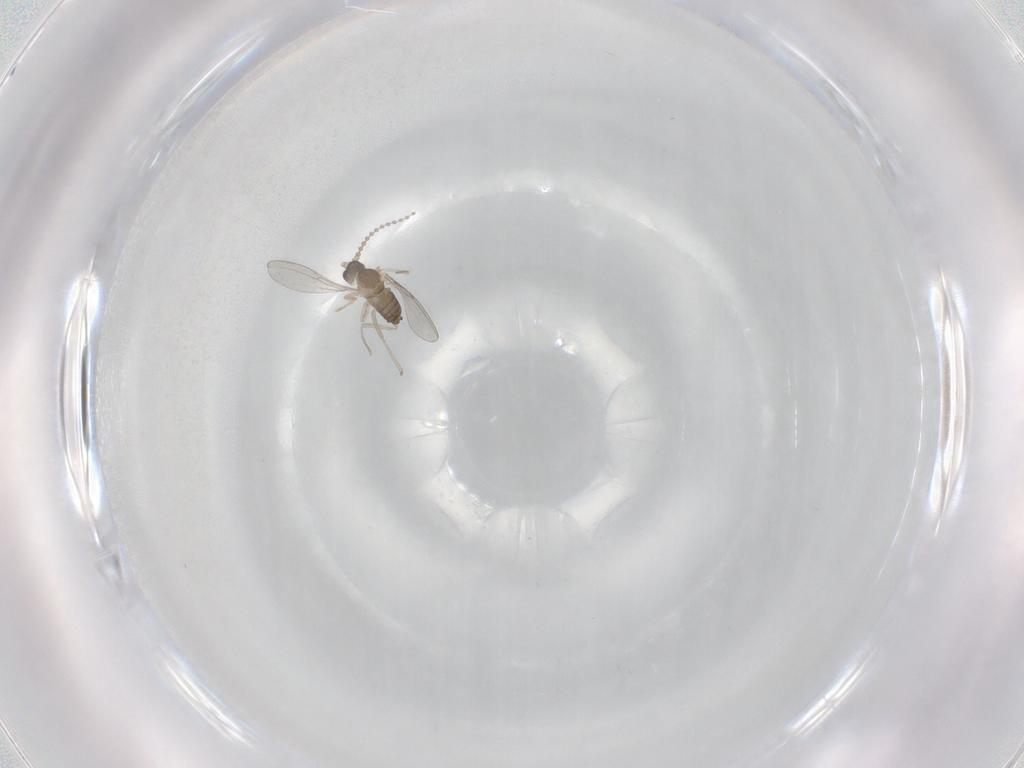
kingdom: Animalia
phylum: Arthropoda
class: Insecta
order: Diptera
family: Cecidomyiidae
